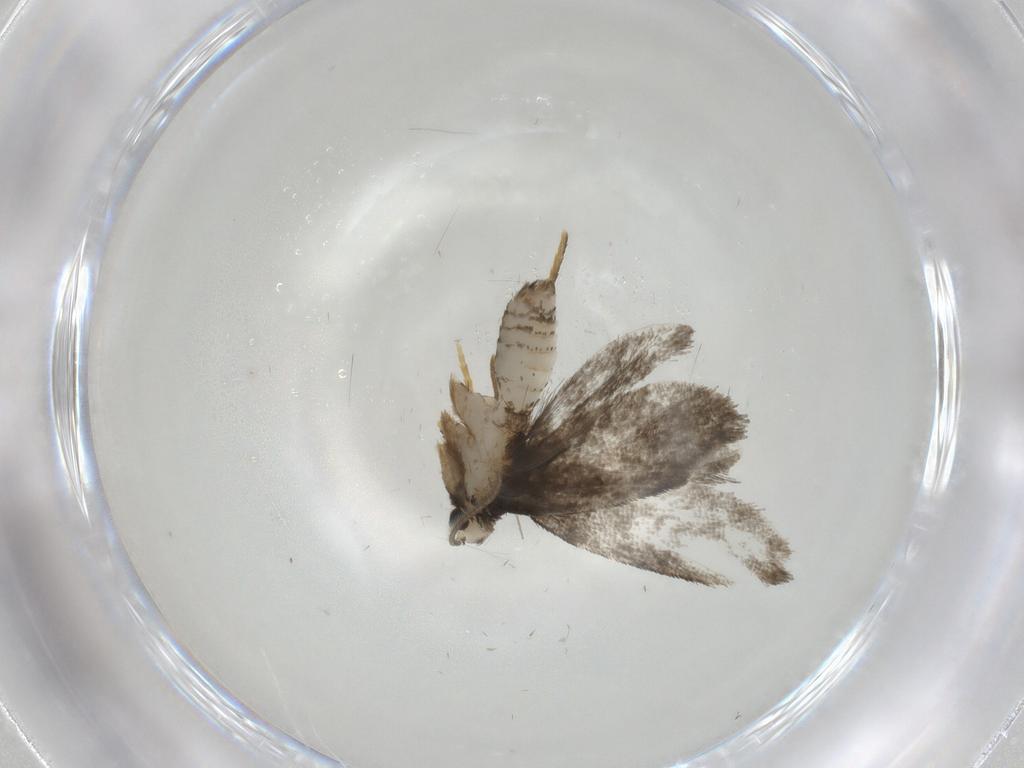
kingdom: Animalia
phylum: Arthropoda
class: Insecta
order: Lepidoptera
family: Psychidae
